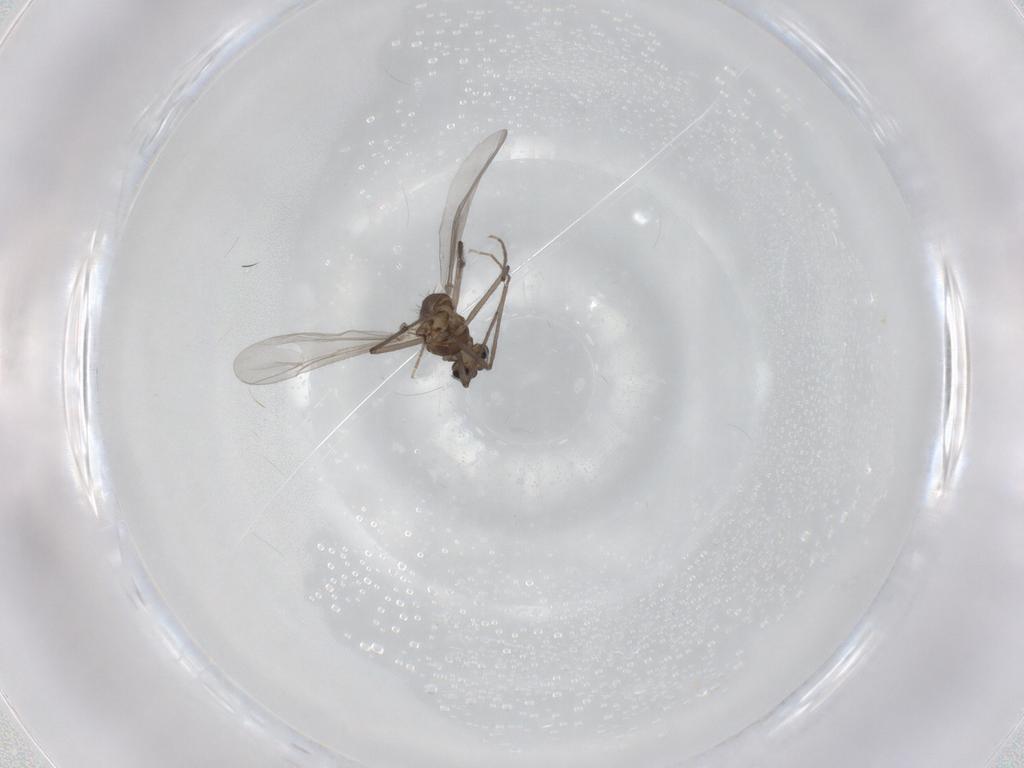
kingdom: Animalia
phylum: Arthropoda
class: Insecta
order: Diptera
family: Chironomidae
